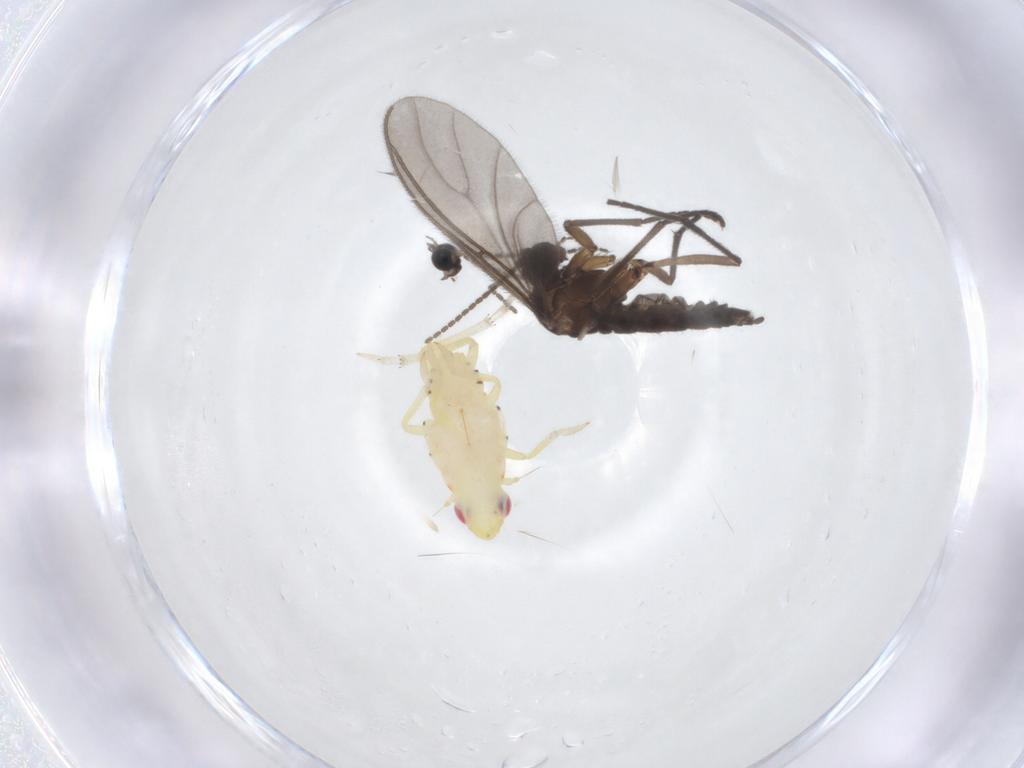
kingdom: Animalia
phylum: Arthropoda
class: Insecta
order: Diptera
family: Sciaridae
